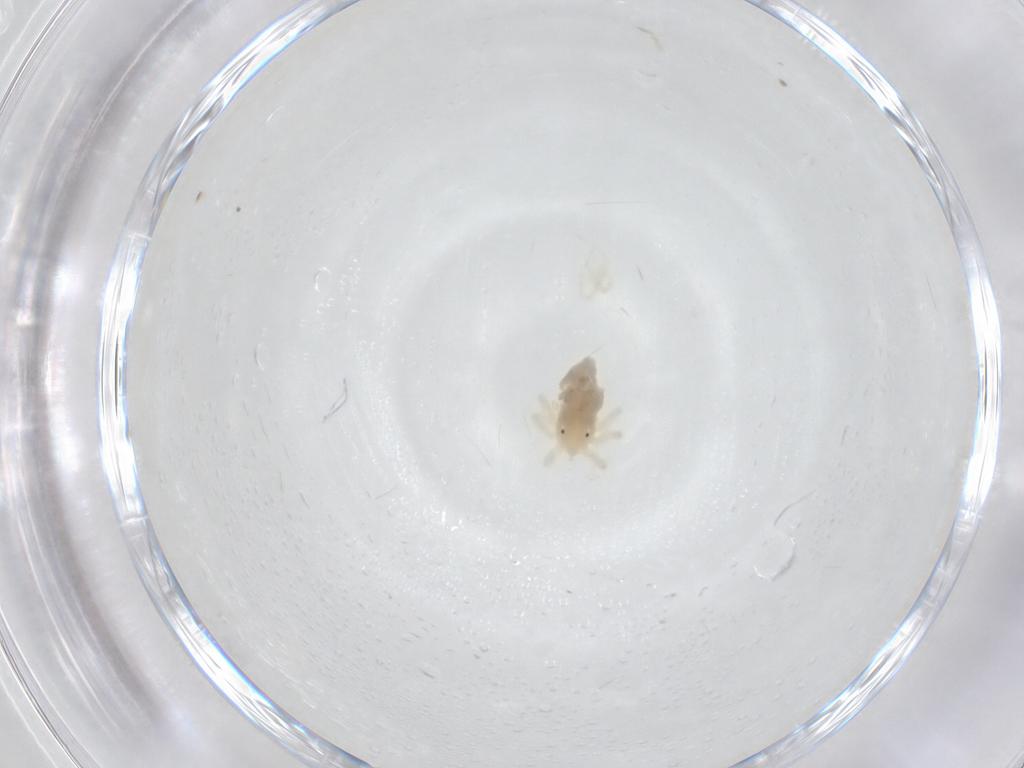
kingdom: Animalia
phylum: Arthropoda
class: Arachnida
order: Trombidiformes
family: Anystidae
